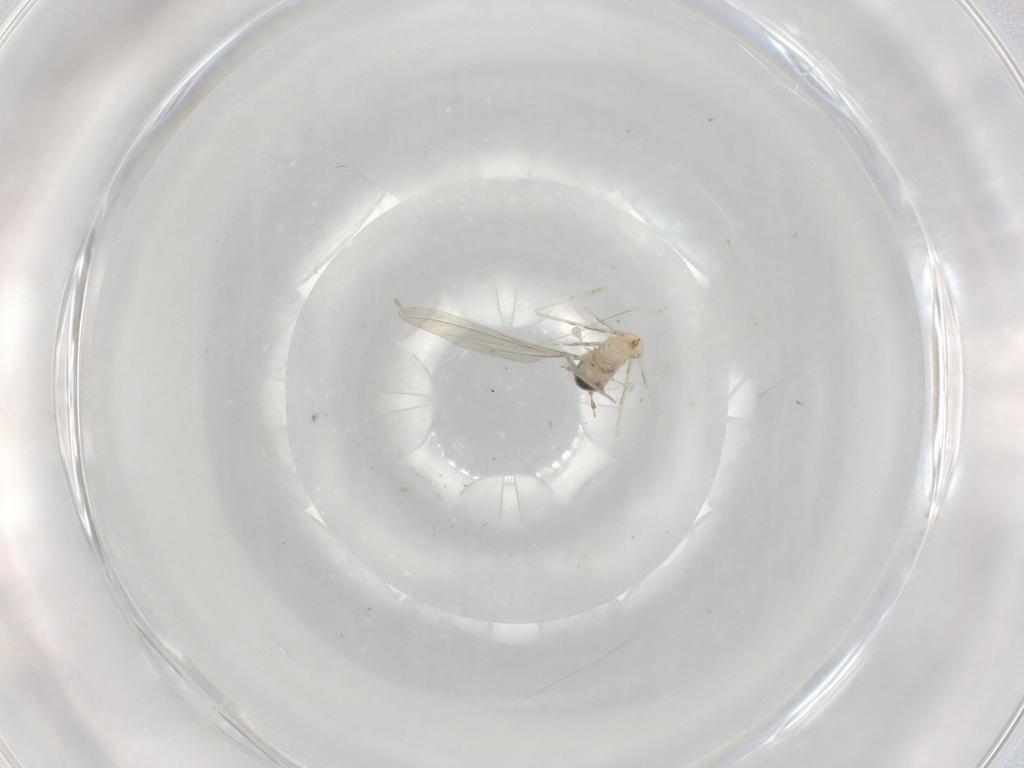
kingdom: Animalia
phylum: Arthropoda
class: Insecta
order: Diptera
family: Cecidomyiidae
